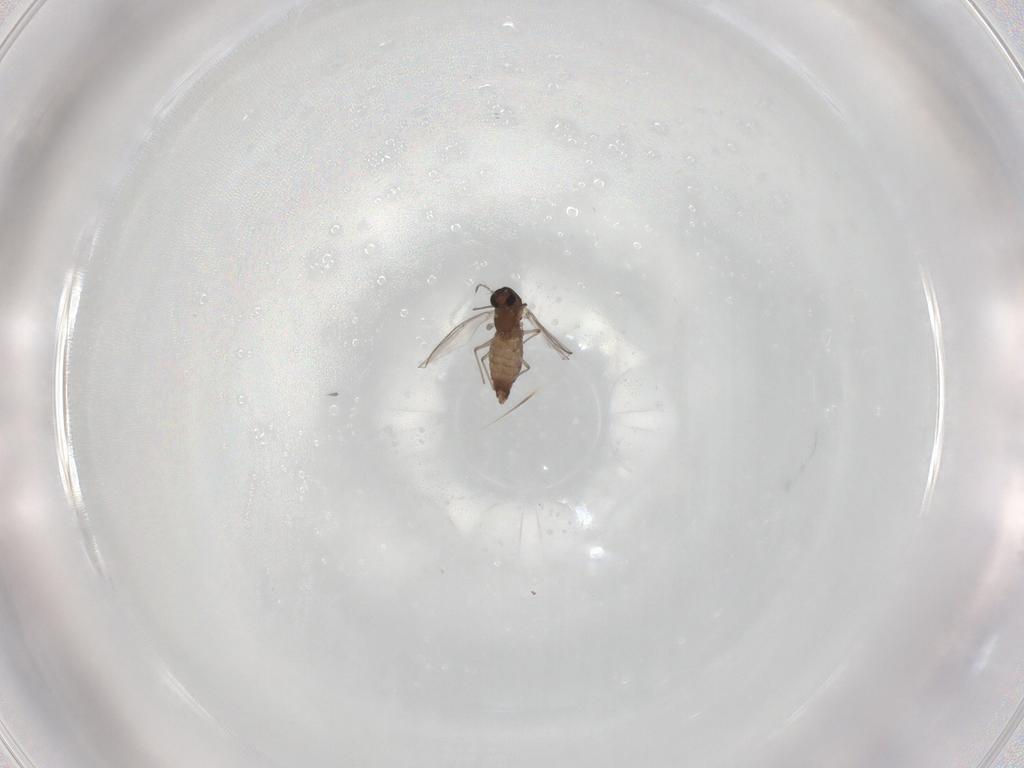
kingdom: Animalia
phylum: Arthropoda
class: Insecta
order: Diptera
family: Chironomidae
